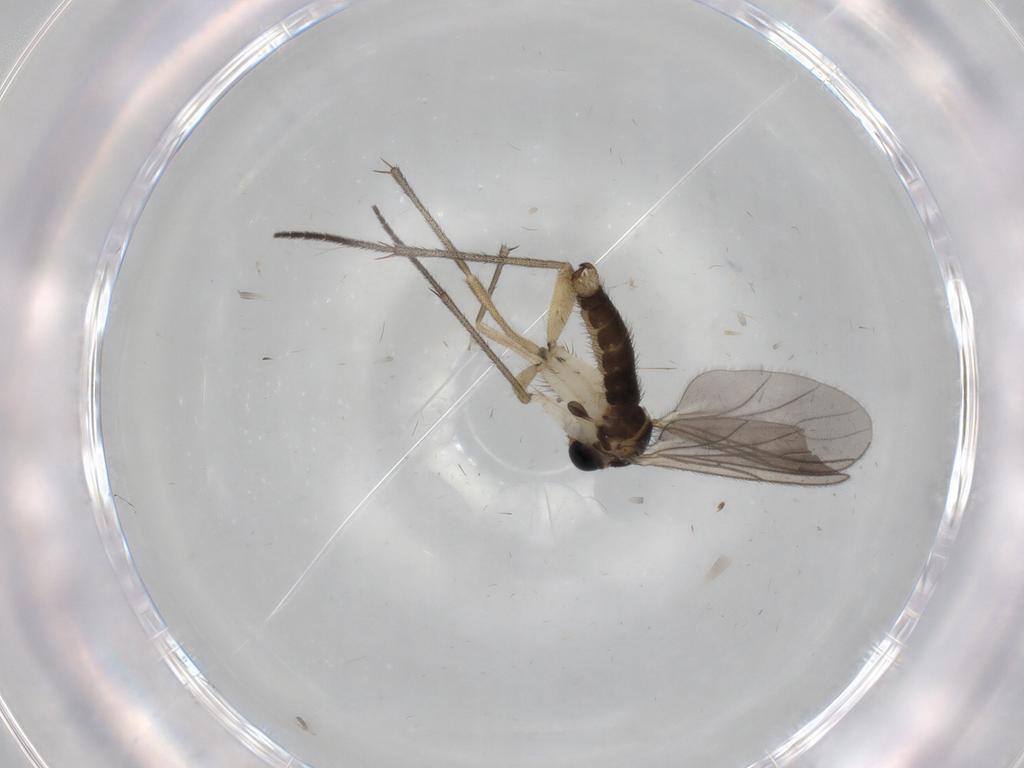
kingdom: Animalia
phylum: Arthropoda
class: Insecta
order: Diptera
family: Sciaridae
